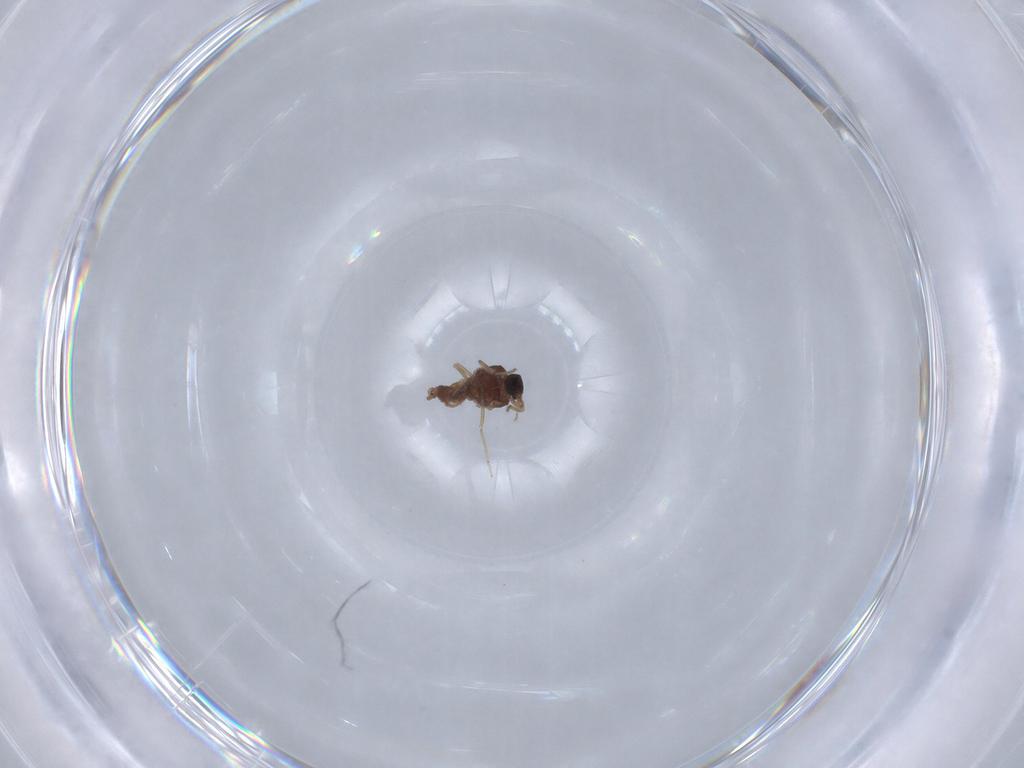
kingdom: Animalia
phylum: Arthropoda
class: Insecta
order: Diptera
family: Ceratopogonidae
